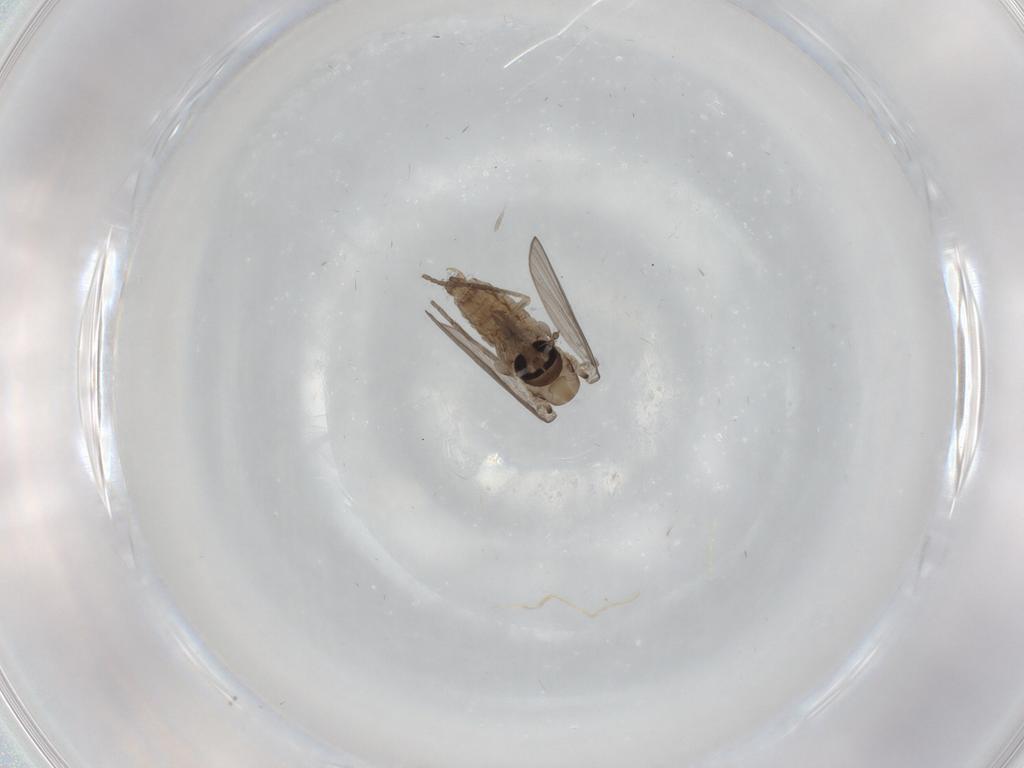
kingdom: Animalia
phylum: Arthropoda
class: Insecta
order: Diptera
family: Psychodidae
